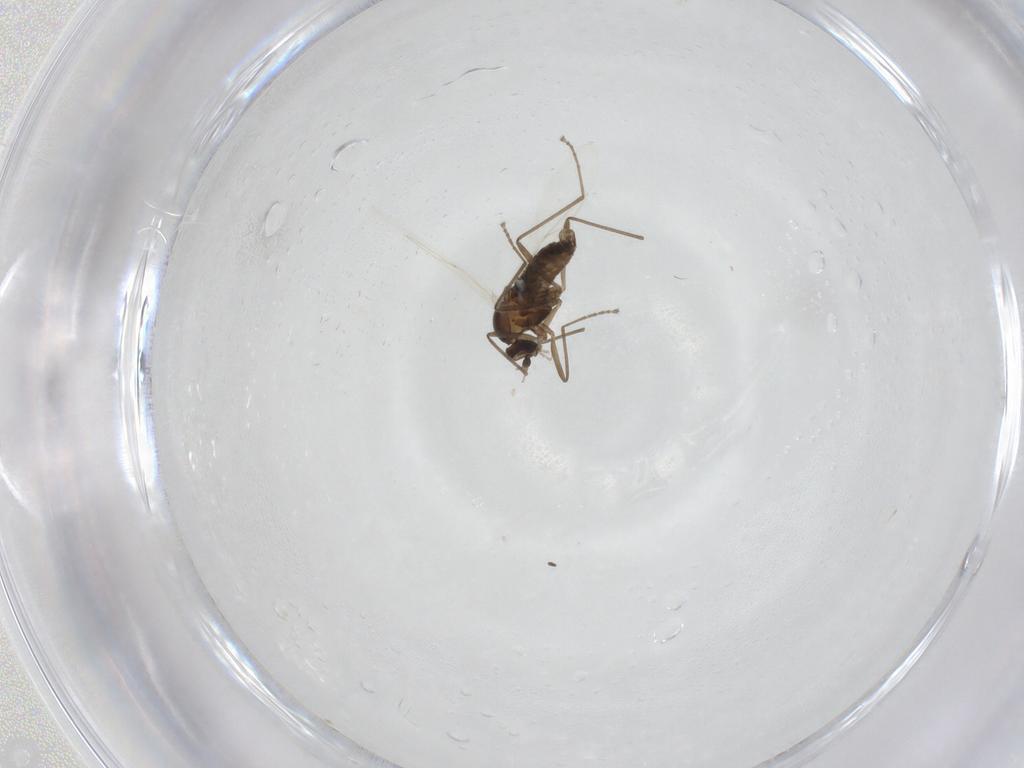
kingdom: Animalia
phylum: Arthropoda
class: Insecta
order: Diptera
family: Cecidomyiidae
